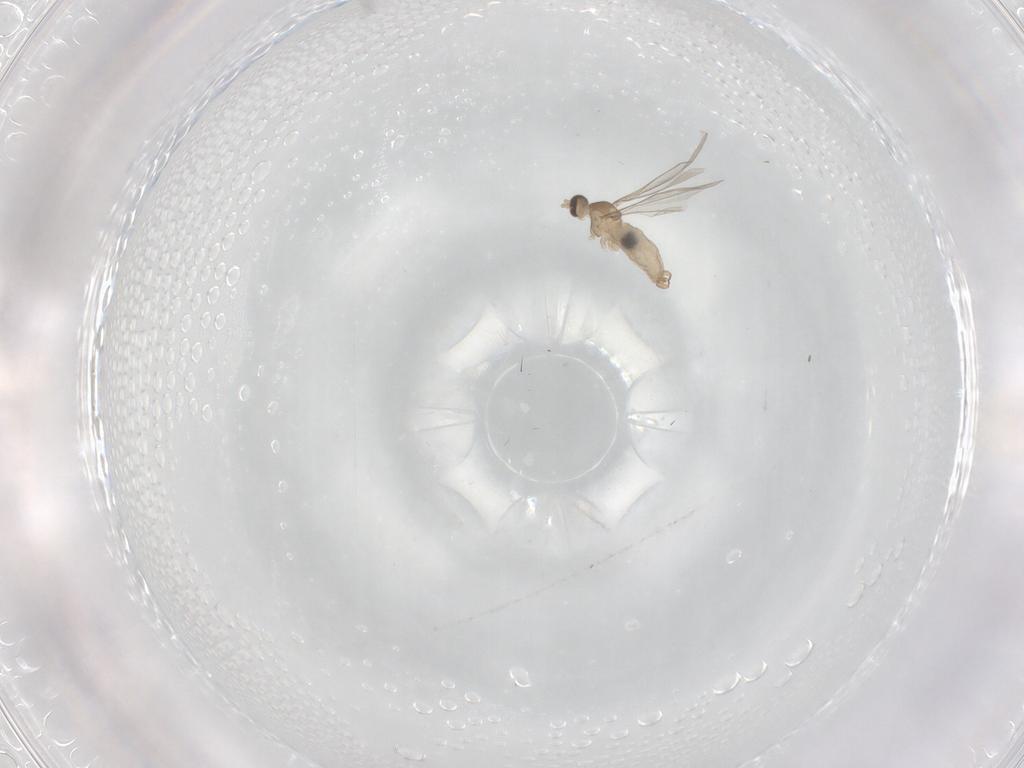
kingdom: Animalia
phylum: Arthropoda
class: Insecta
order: Diptera
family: Cecidomyiidae
